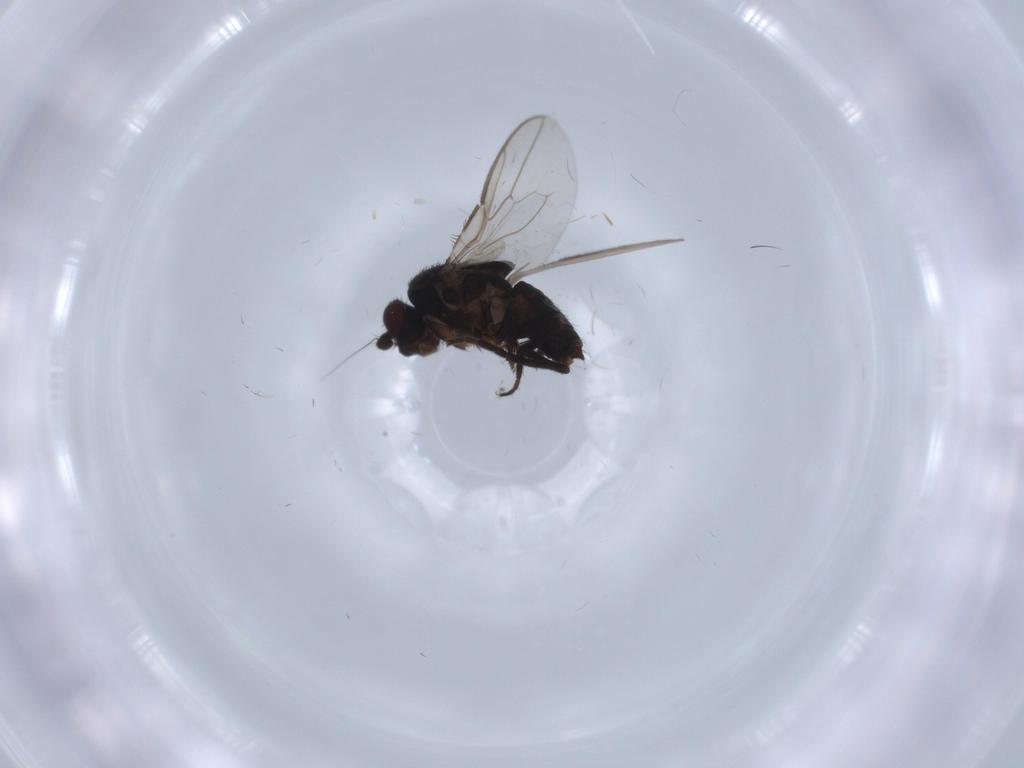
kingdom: Animalia
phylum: Arthropoda
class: Insecta
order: Diptera
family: Sphaeroceridae
